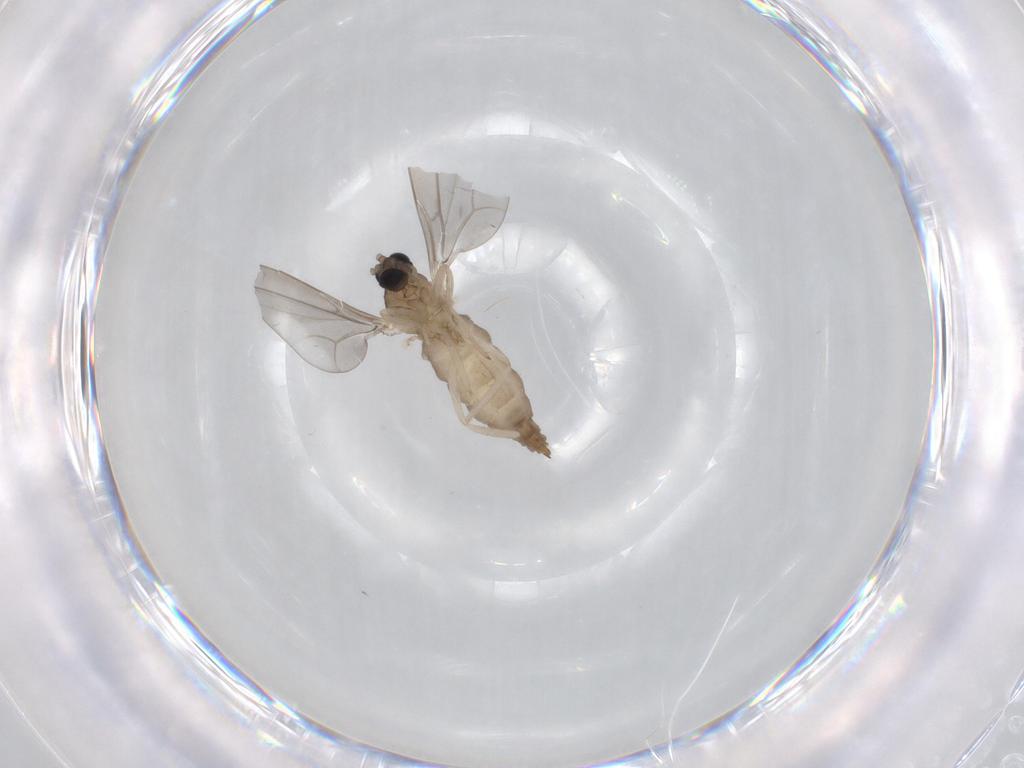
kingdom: Animalia
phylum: Arthropoda
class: Insecta
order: Diptera
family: Cecidomyiidae
